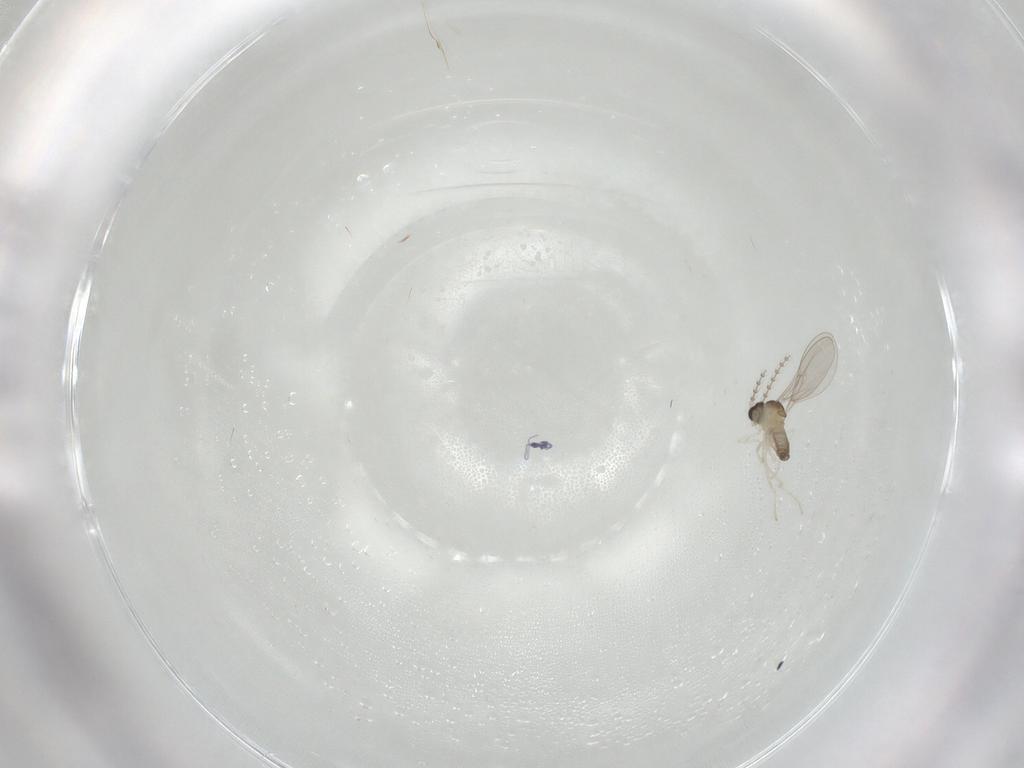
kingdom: Animalia
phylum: Arthropoda
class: Insecta
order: Diptera
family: Cecidomyiidae
